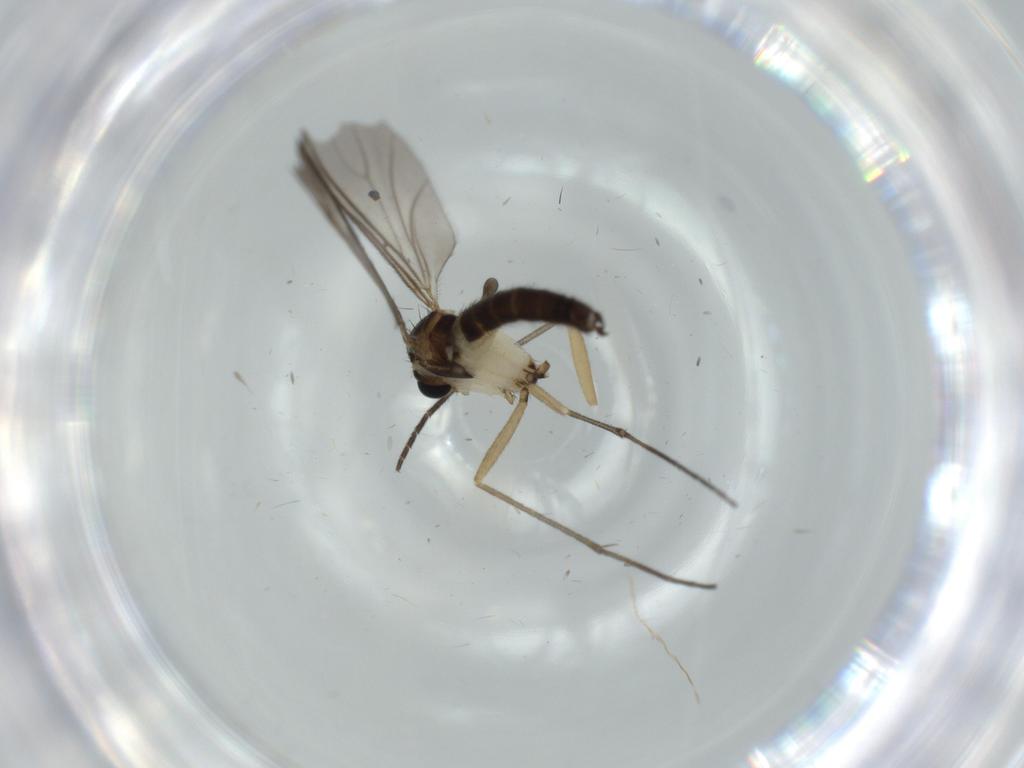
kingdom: Animalia
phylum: Arthropoda
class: Insecta
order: Diptera
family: Sciaridae
